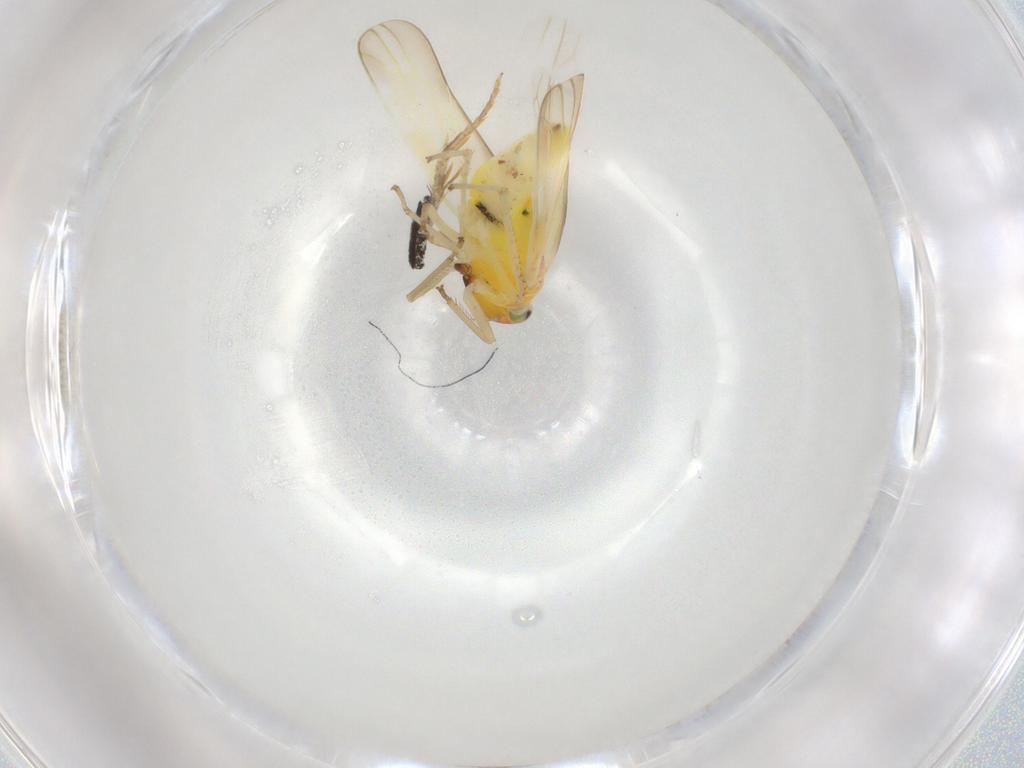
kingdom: Animalia
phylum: Arthropoda
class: Insecta
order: Hemiptera
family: Cicadellidae
